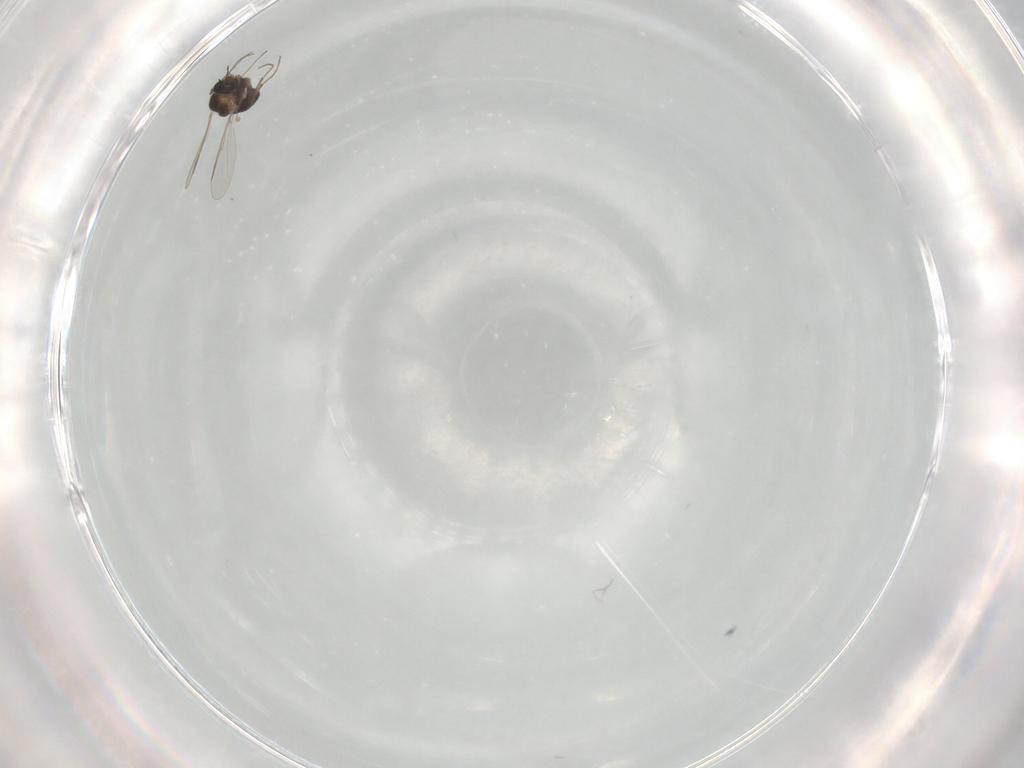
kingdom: Animalia
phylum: Arthropoda
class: Insecta
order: Diptera
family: Chironomidae
